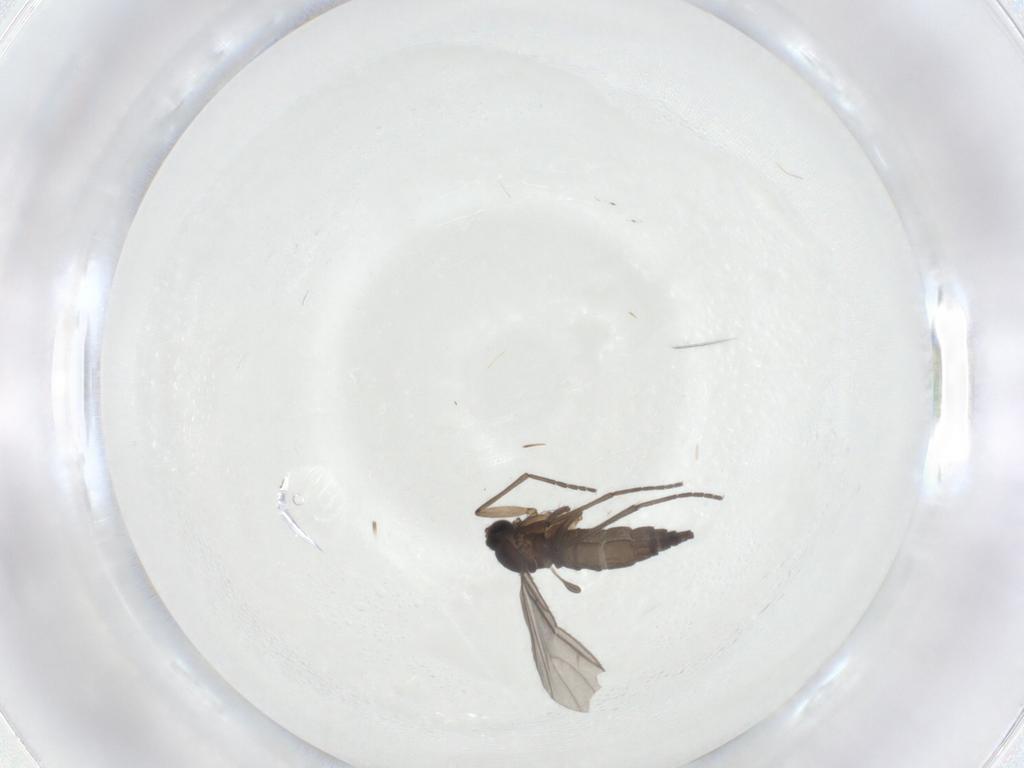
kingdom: Animalia
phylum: Arthropoda
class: Insecta
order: Diptera
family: Sciaridae
